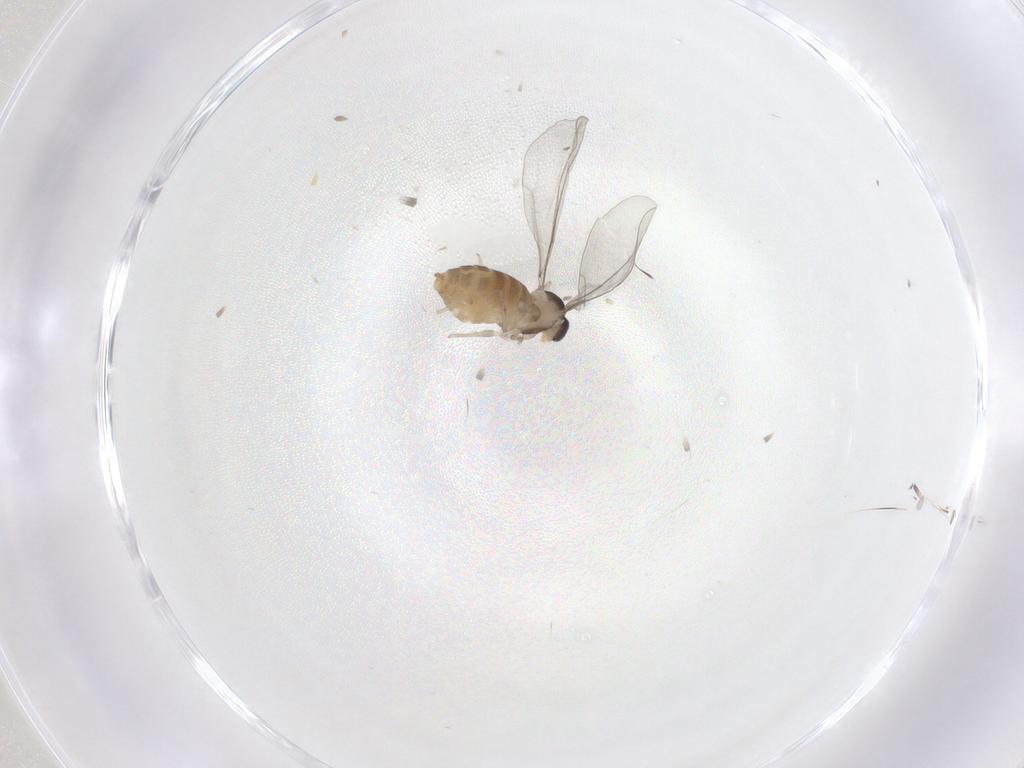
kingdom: Animalia
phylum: Arthropoda
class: Insecta
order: Diptera
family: Cecidomyiidae
